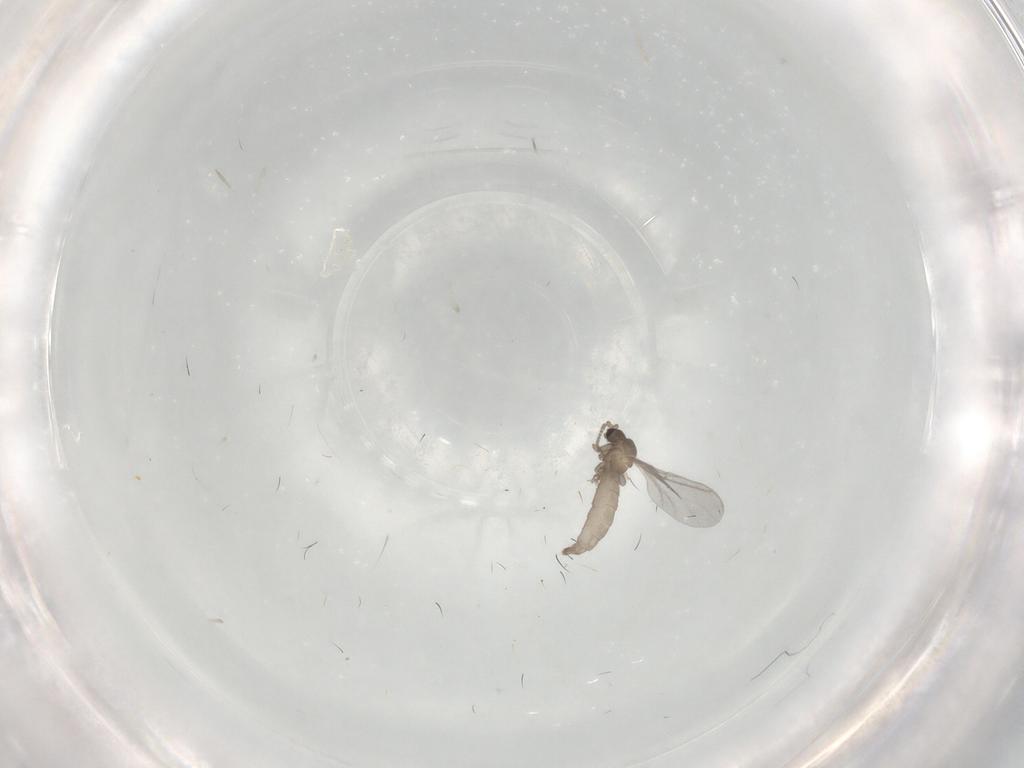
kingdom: Animalia
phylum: Arthropoda
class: Insecta
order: Diptera
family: Sciaridae
